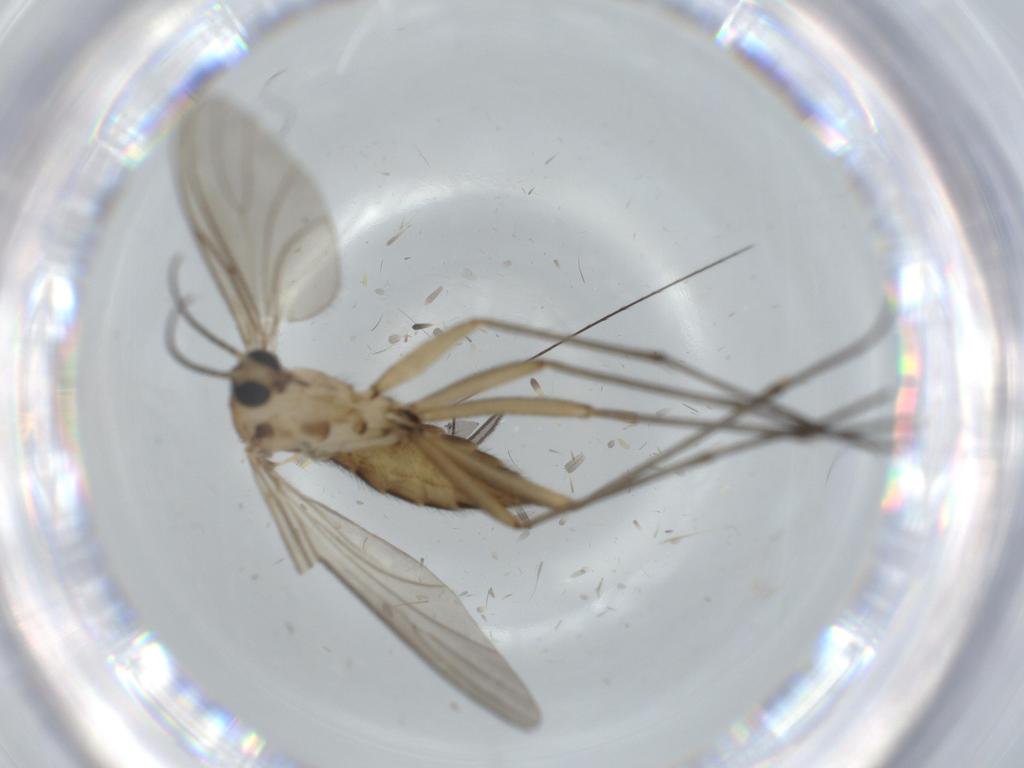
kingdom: Animalia
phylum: Arthropoda
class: Insecta
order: Diptera
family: Sciaridae
